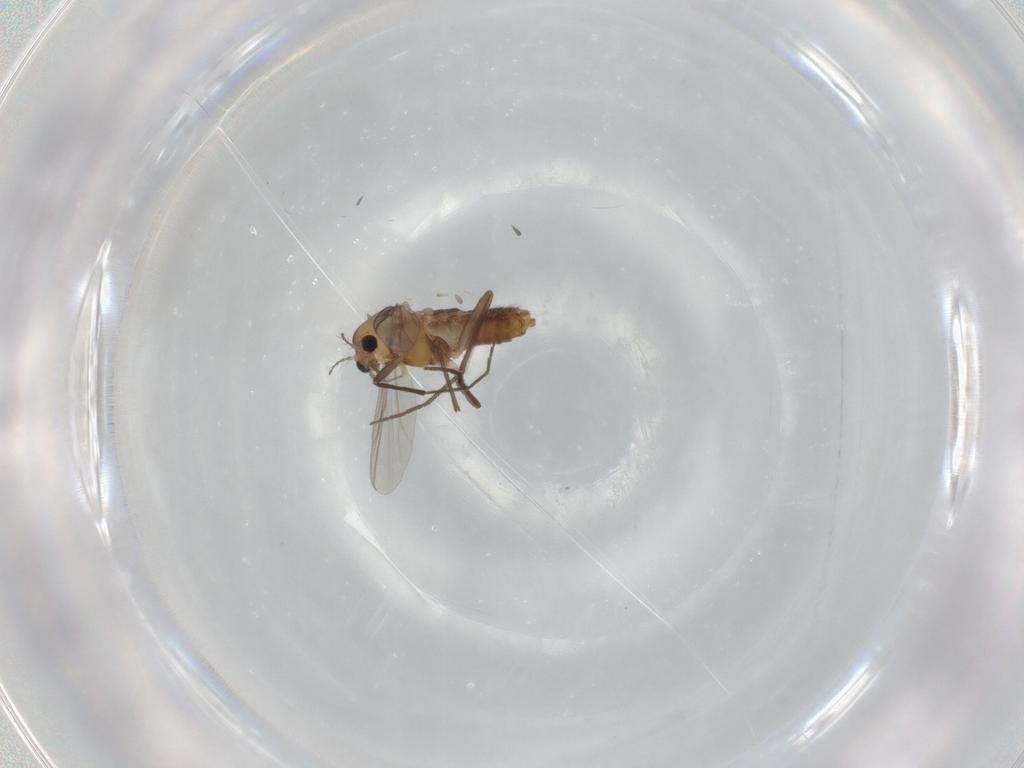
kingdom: Animalia
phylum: Arthropoda
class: Insecta
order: Diptera
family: Chironomidae
